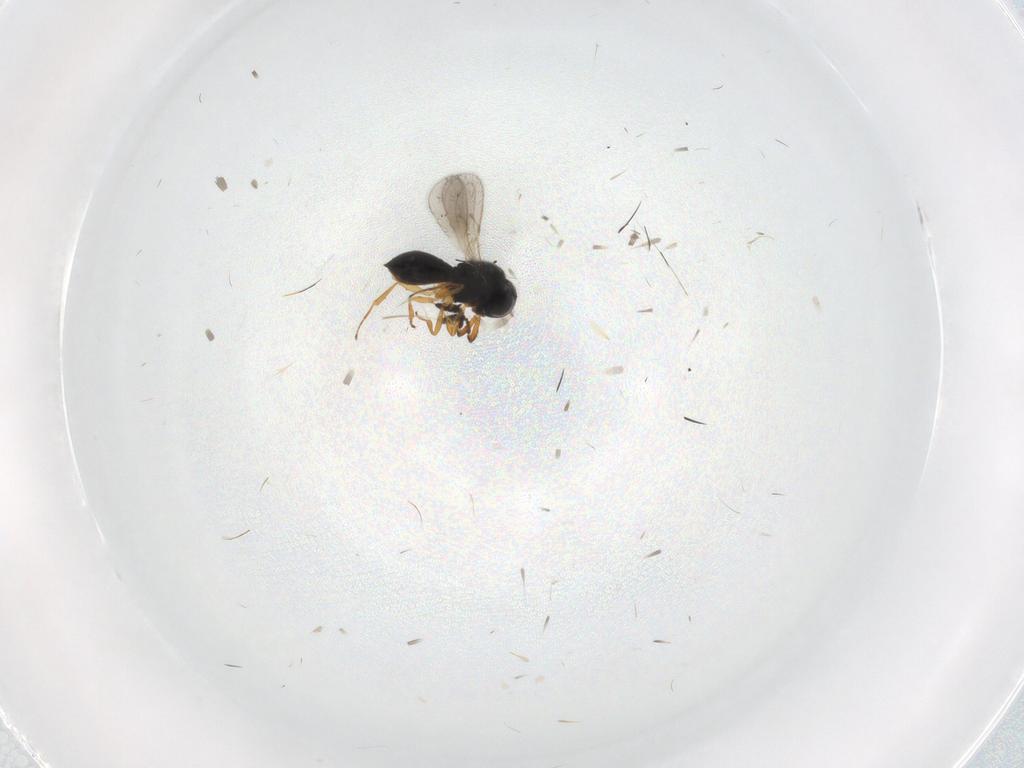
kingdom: Animalia
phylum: Arthropoda
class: Insecta
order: Hymenoptera
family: Scelionidae
